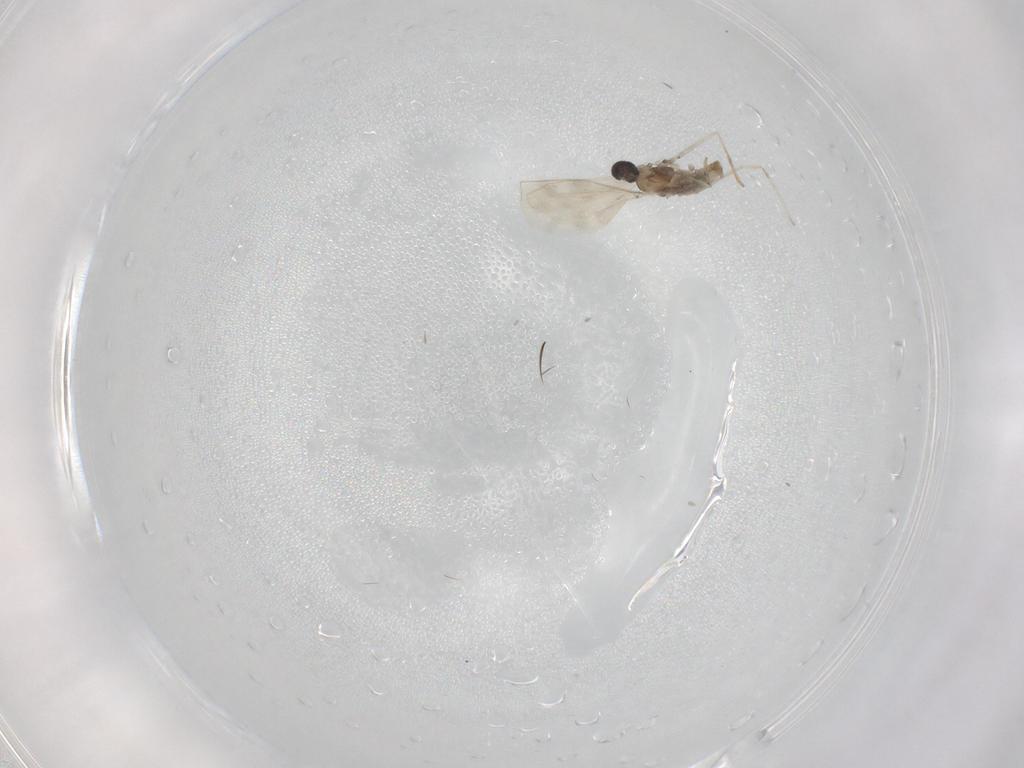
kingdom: Animalia
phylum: Arthropoda
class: Insecta
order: Diptera
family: Cecidomyiidae
